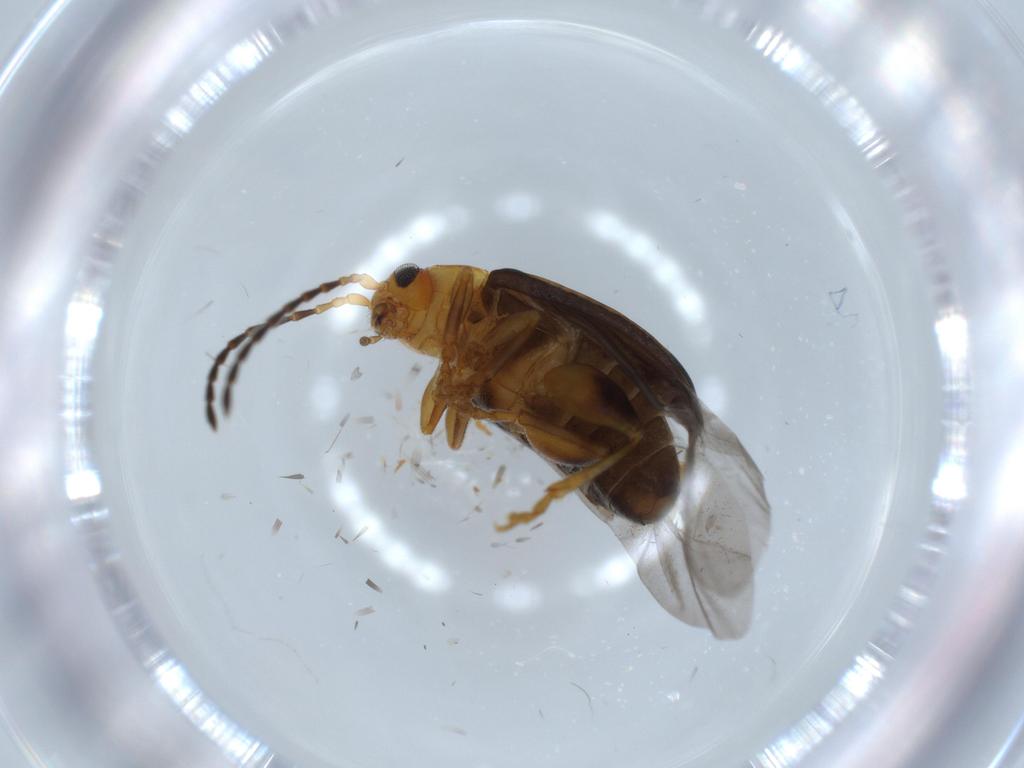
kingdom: Animalia
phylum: Arthropoda
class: Insecta
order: Coleoptera
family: Chrysomelidae
